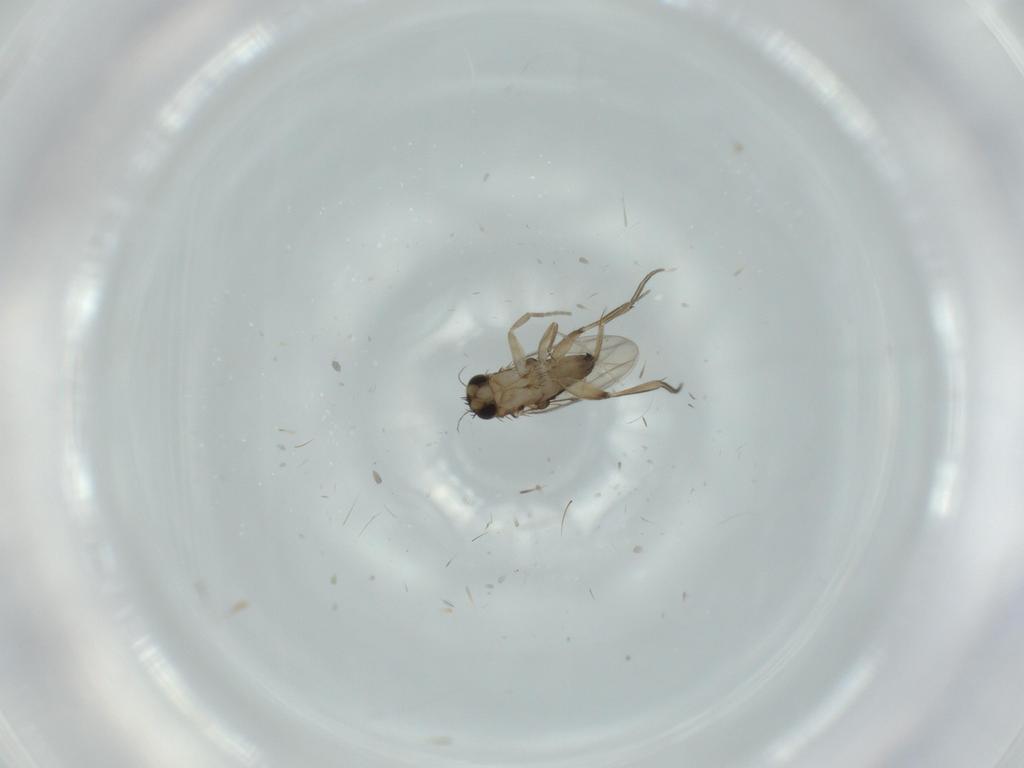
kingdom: Animalia
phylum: Arthropoda
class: Insecta
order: Diptera
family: Phoridae
